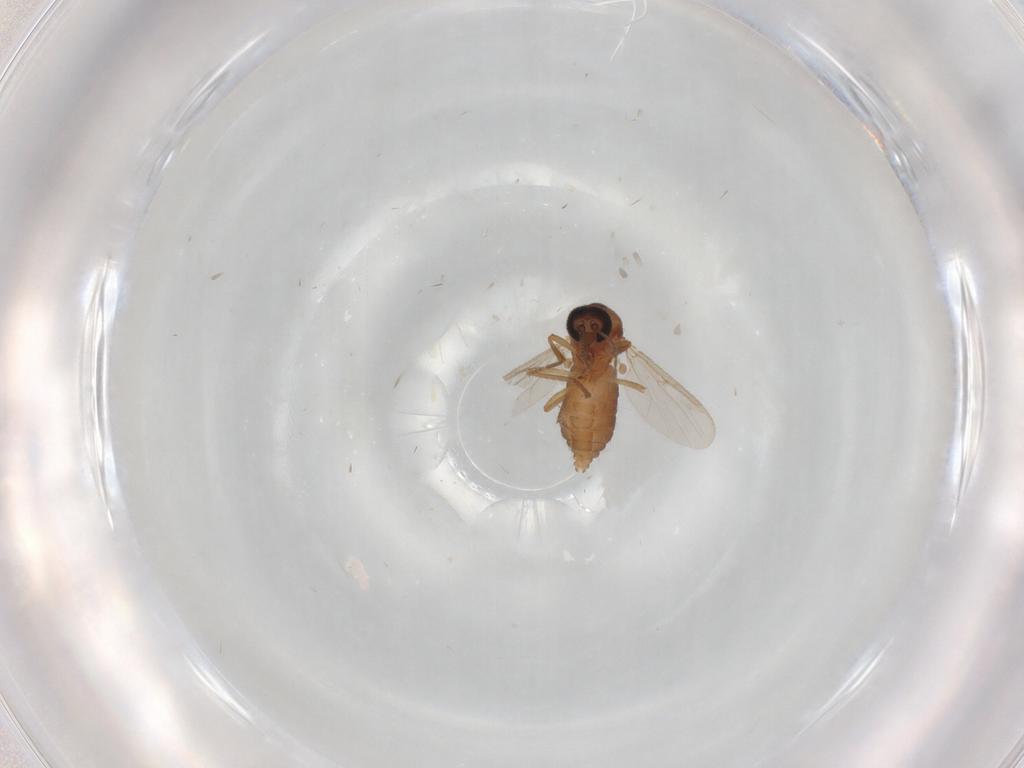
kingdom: Animalia
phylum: Arthropoda
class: Insecta
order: Diptera
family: Ceratopogonidae
